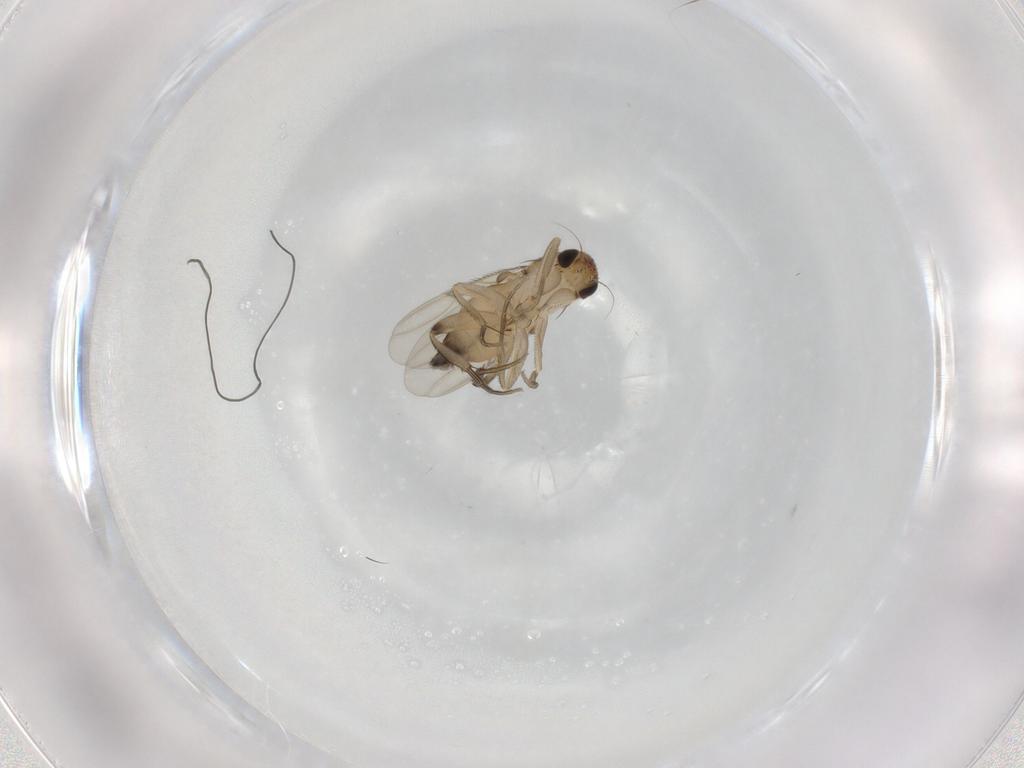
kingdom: Animalia
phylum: Arthropoda
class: Insecta
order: Diptera
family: Phoridae
